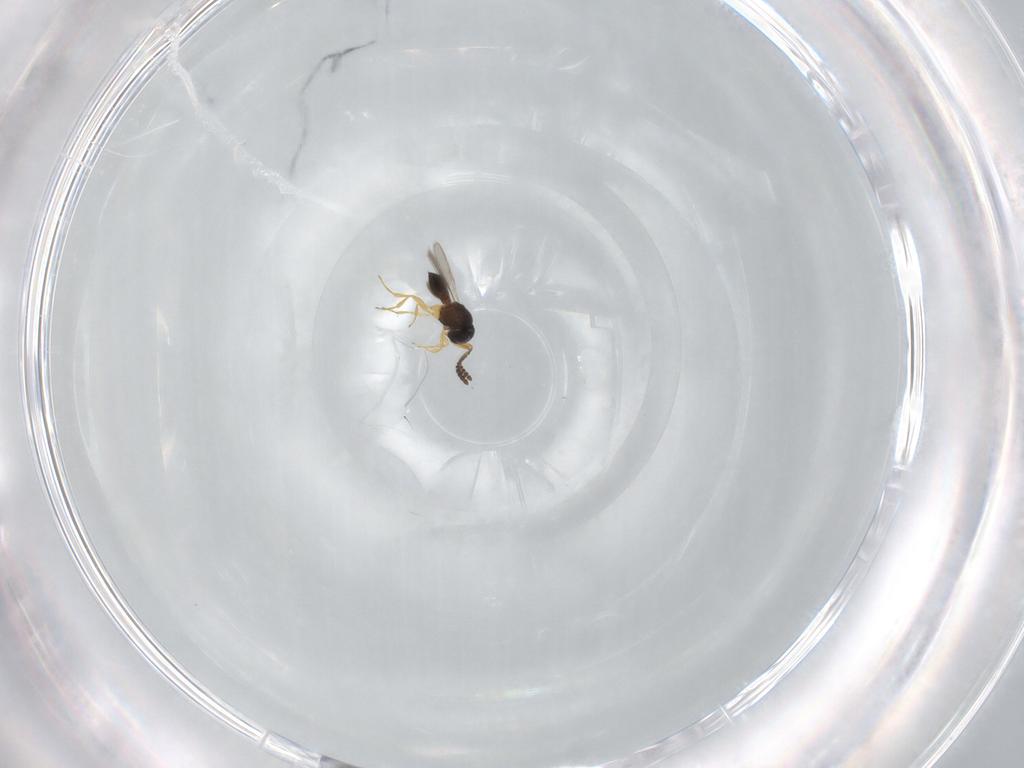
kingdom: Animalia
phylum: Arthropoda
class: Insecta
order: Hymenoptera
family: Scelionidae
